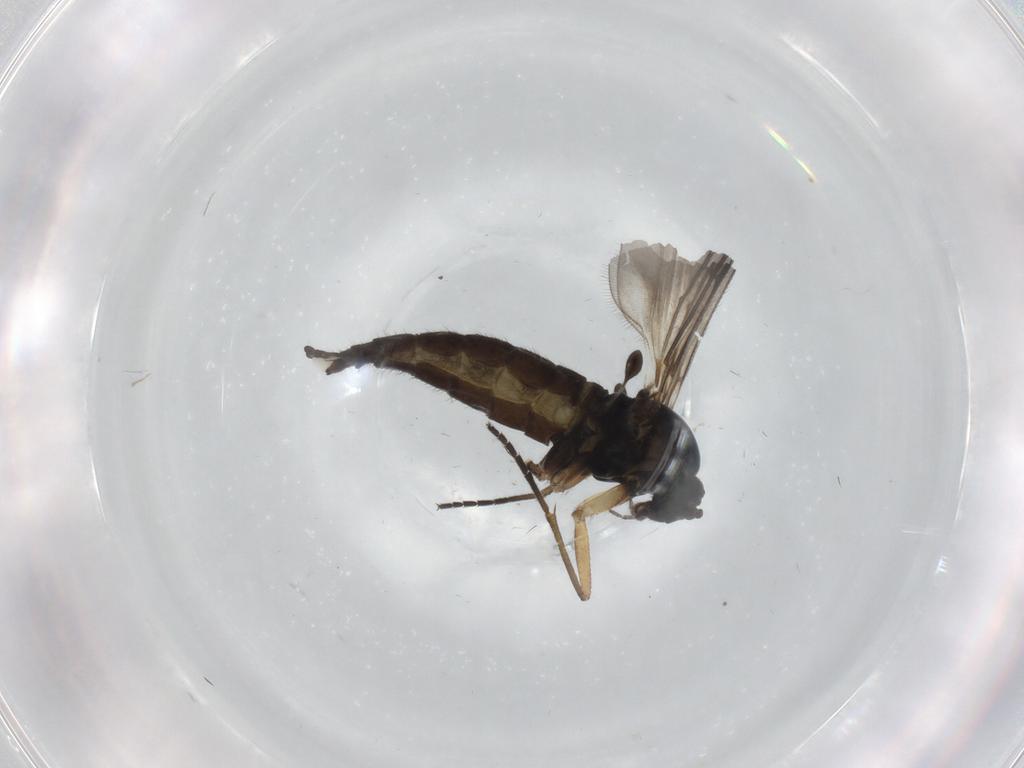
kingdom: Animalia
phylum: Arthropoda
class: Insecta
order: Diptera
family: Sciaridae
